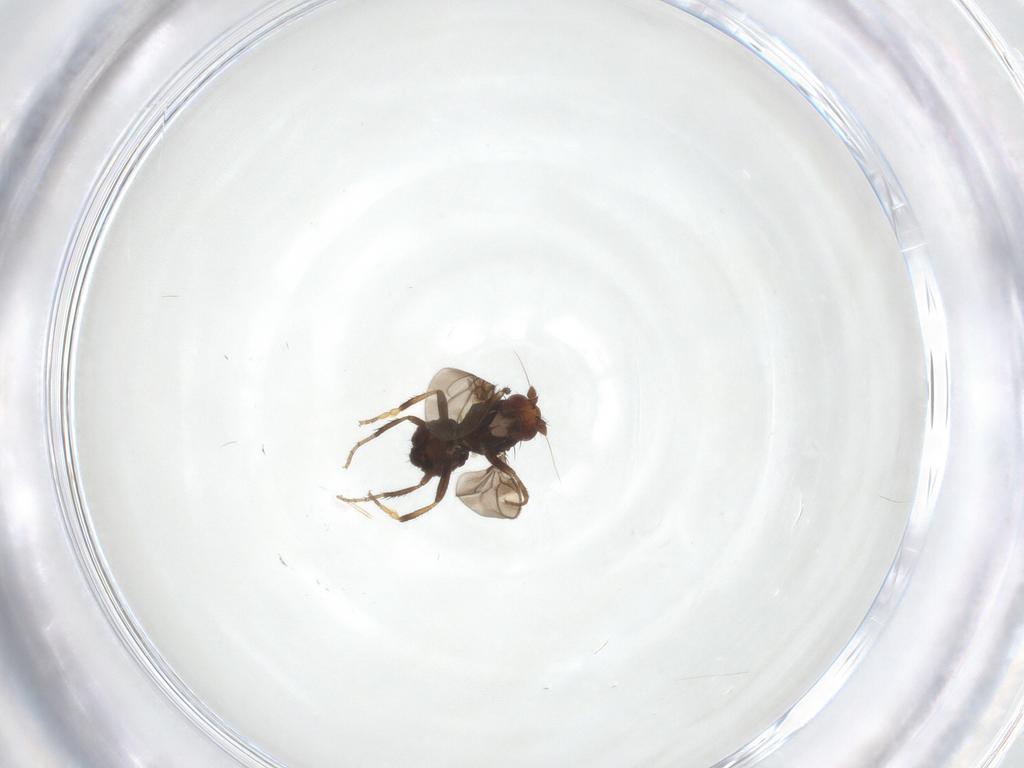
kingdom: Animalia
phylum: Arthropoda
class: Insecta
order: Diptera
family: Sphaeroceridae
